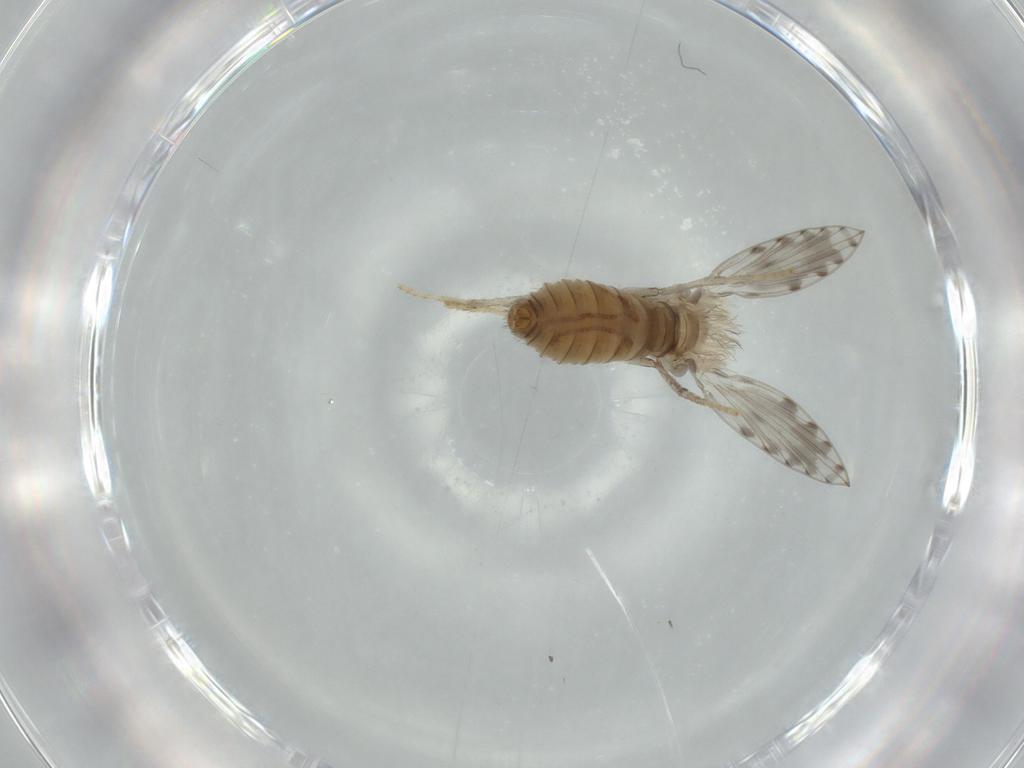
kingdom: Animalia
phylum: Arthropoda
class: Insecta
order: Diptera
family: Psychodidae
